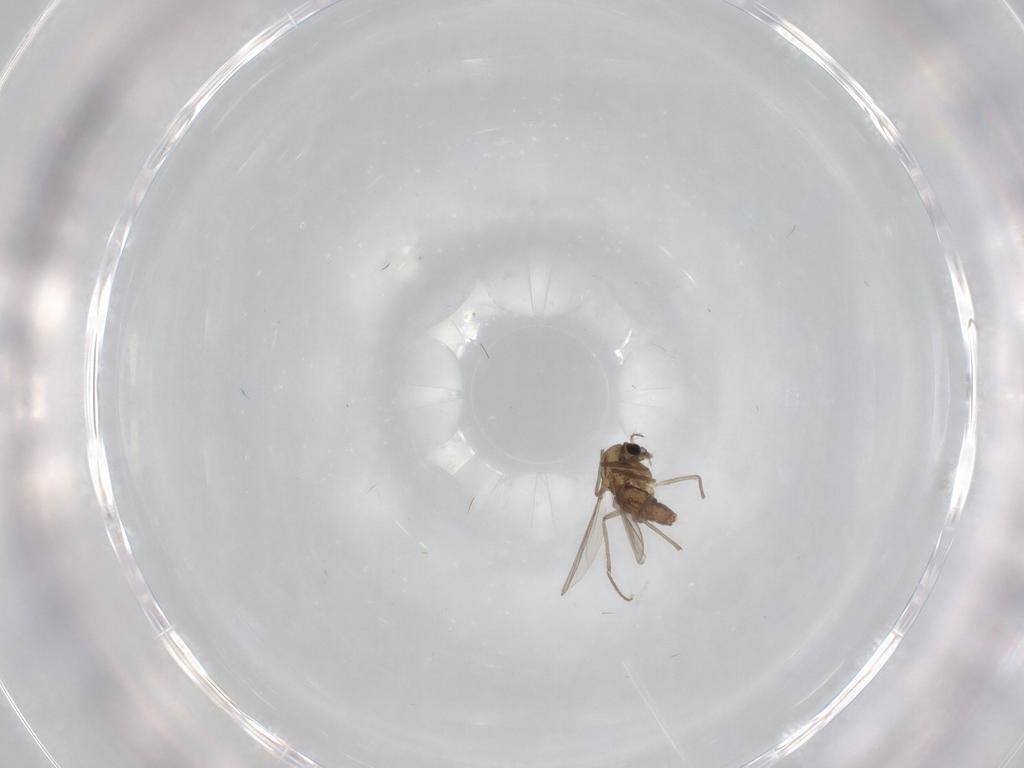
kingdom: Animalia
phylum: Arthropoda
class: Insecta
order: Diptera
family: Chironomidae
